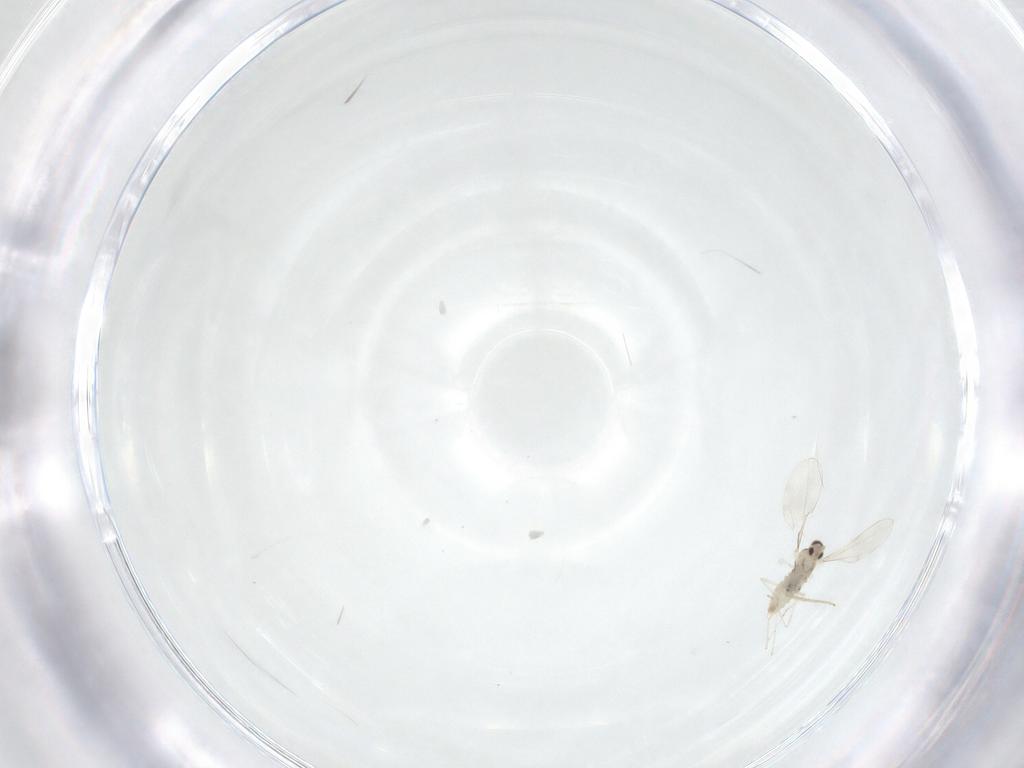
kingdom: Animalia
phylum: Arthropoda
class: Insecta
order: Diptera
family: Cecidomyiidae
